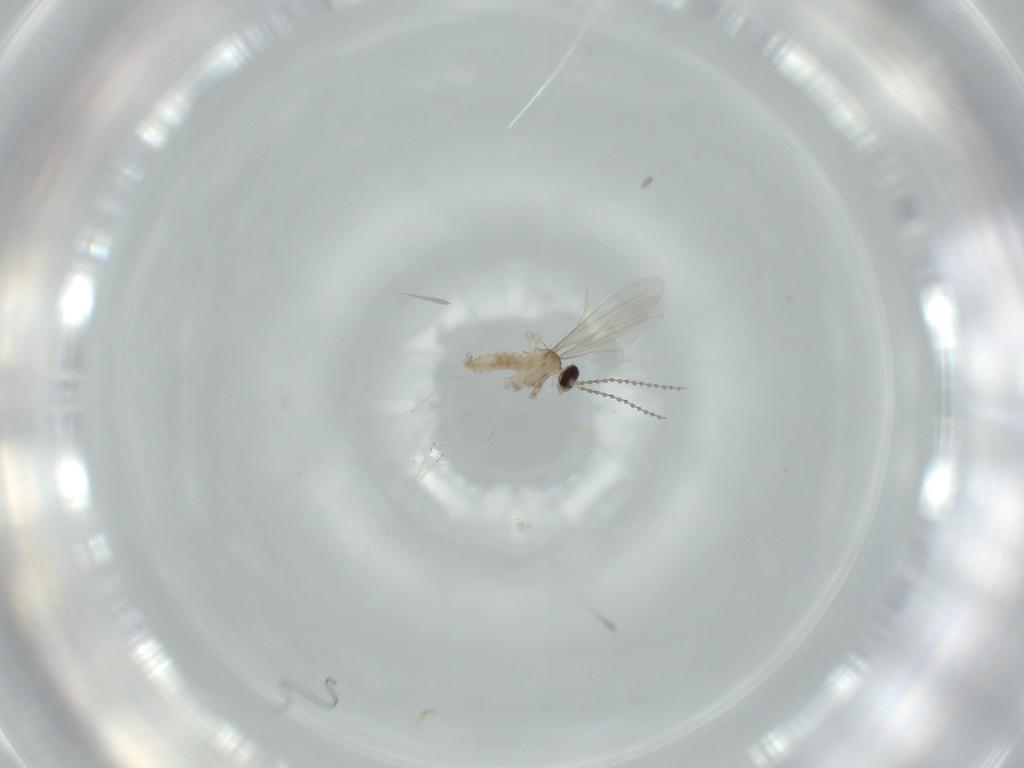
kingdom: Animalia
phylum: Arthropoda
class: Insecta
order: Diptera
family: Chironomidae
